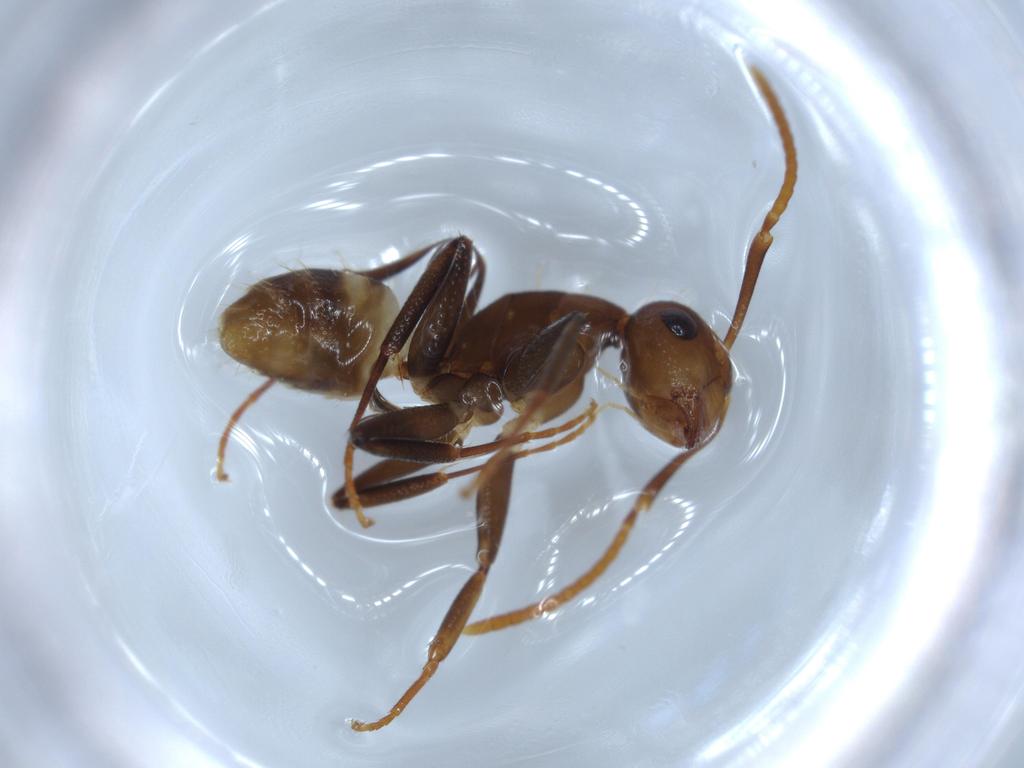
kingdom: Animalia
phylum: Arthropoda
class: Insecta
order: Hymenoptera
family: Formicidae
